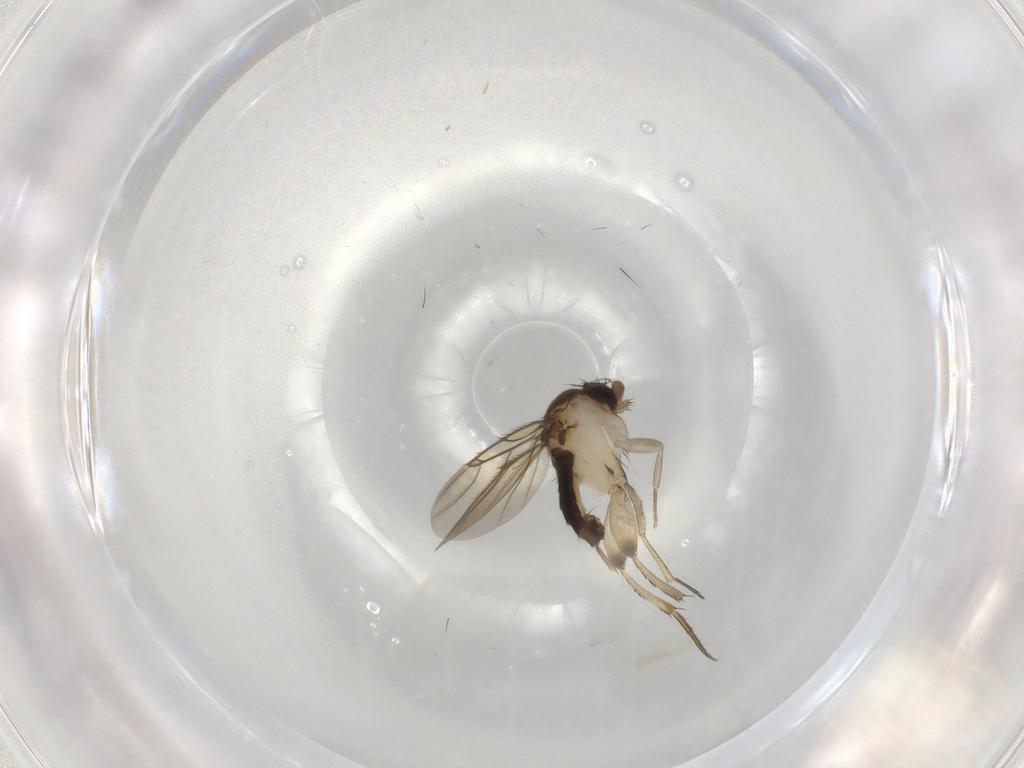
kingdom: Animalia
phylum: Arthropoda
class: Insecta
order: Diptera
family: Phoridae
